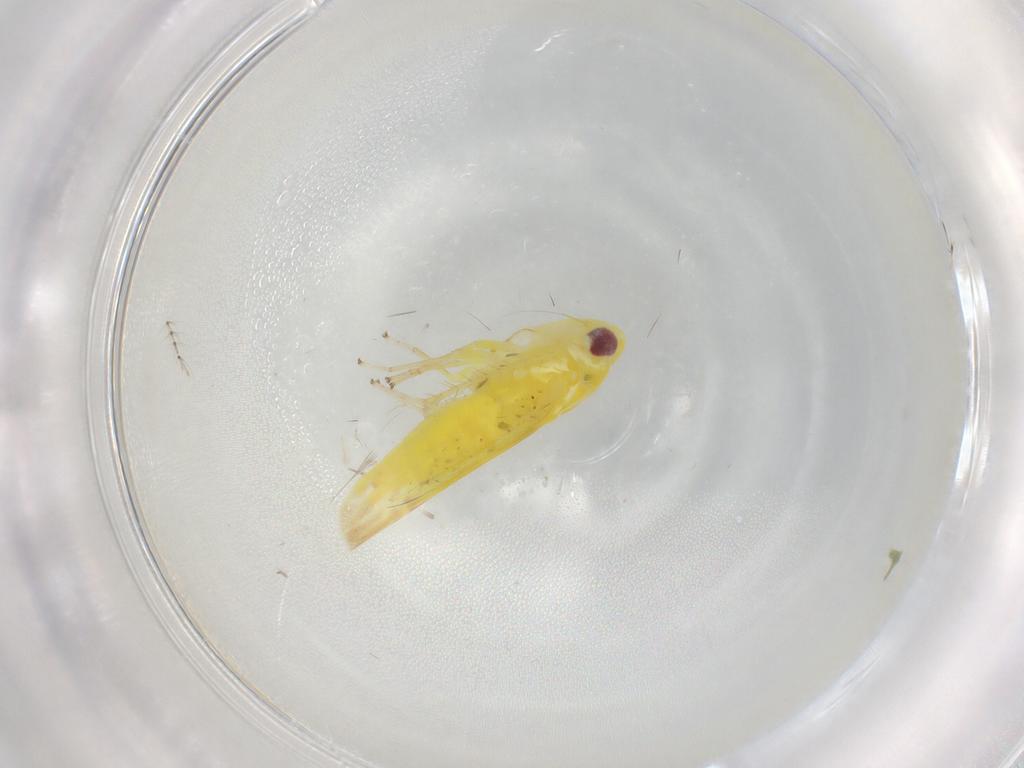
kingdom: Animalia
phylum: Arthropoda
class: Insecta
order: Hemiptera
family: Cicadellidae
